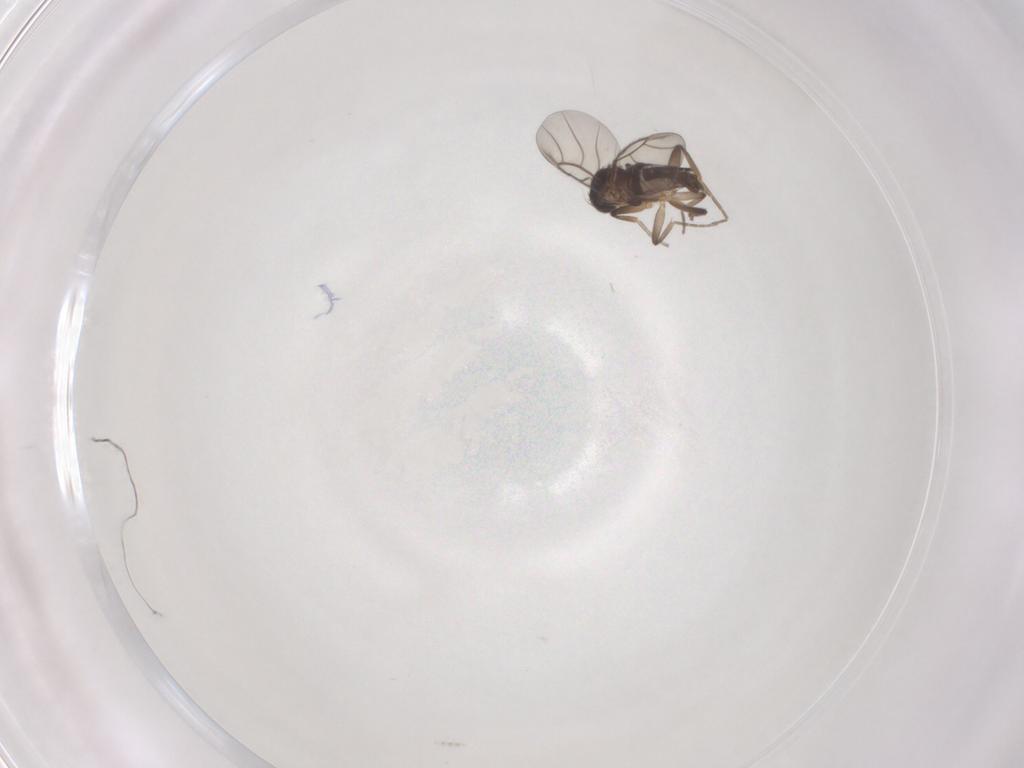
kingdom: Animalia
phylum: Arthropoda
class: Insecta
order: Diptera
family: Phoridae
